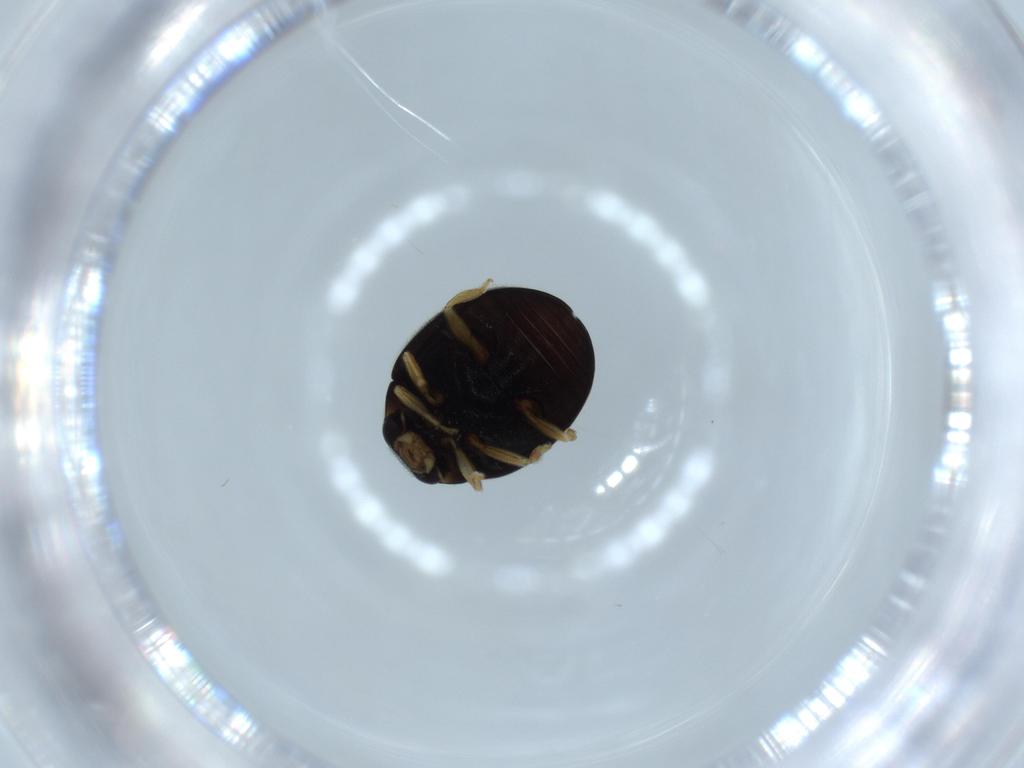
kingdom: Animalia
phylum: Arthropoda
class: Insecta
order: Coleoptera
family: Coccinellidae
